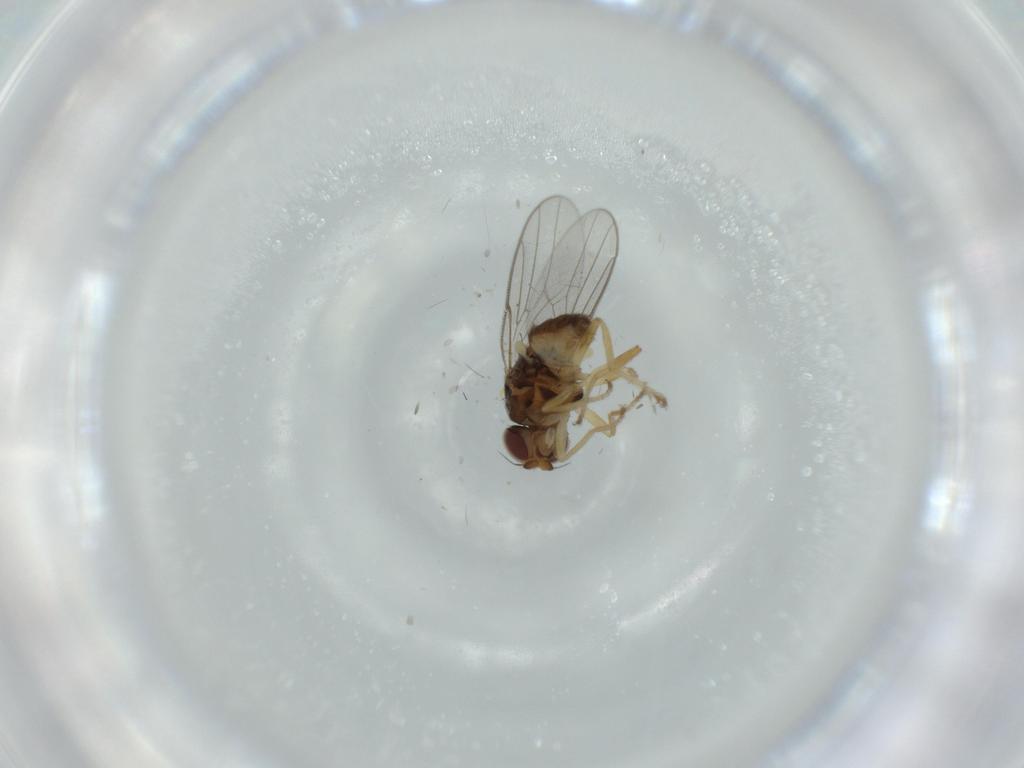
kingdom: Animalia
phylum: Arthropoda
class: Insecta
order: Diptera
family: Chloropidae
